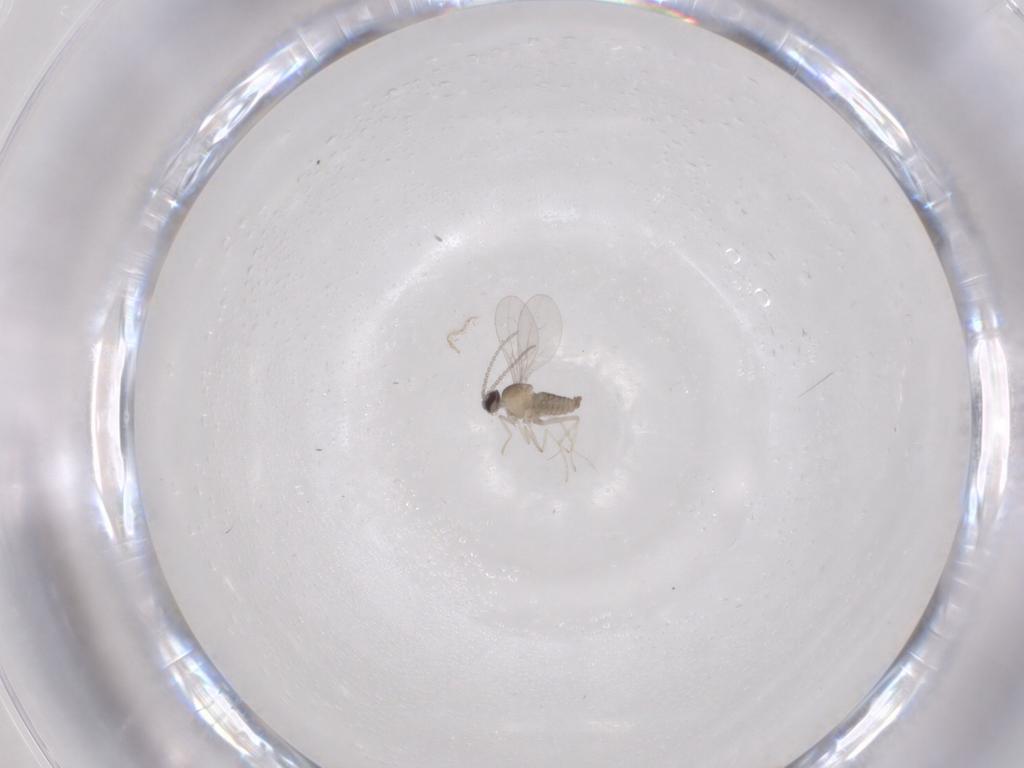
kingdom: Animalia
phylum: Arthropoda
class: Insecta
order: Diptera
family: Cecidomyiidae
